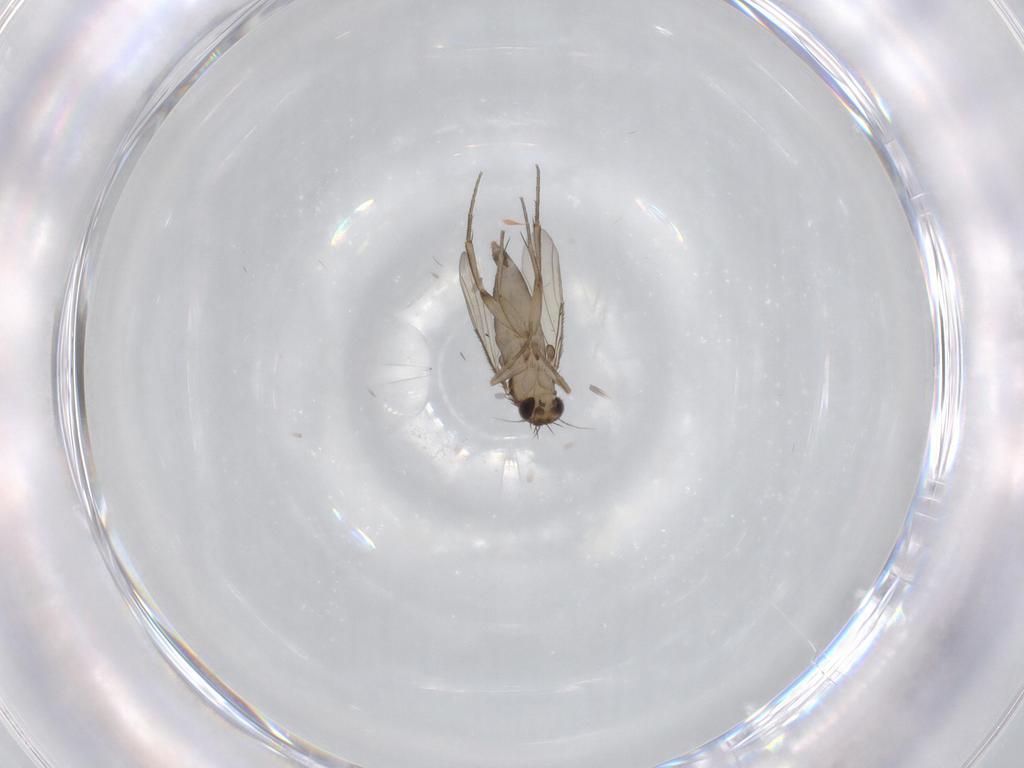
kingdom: Animalia
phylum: Arthropoda
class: Insecta
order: Diptera
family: Phoridae
